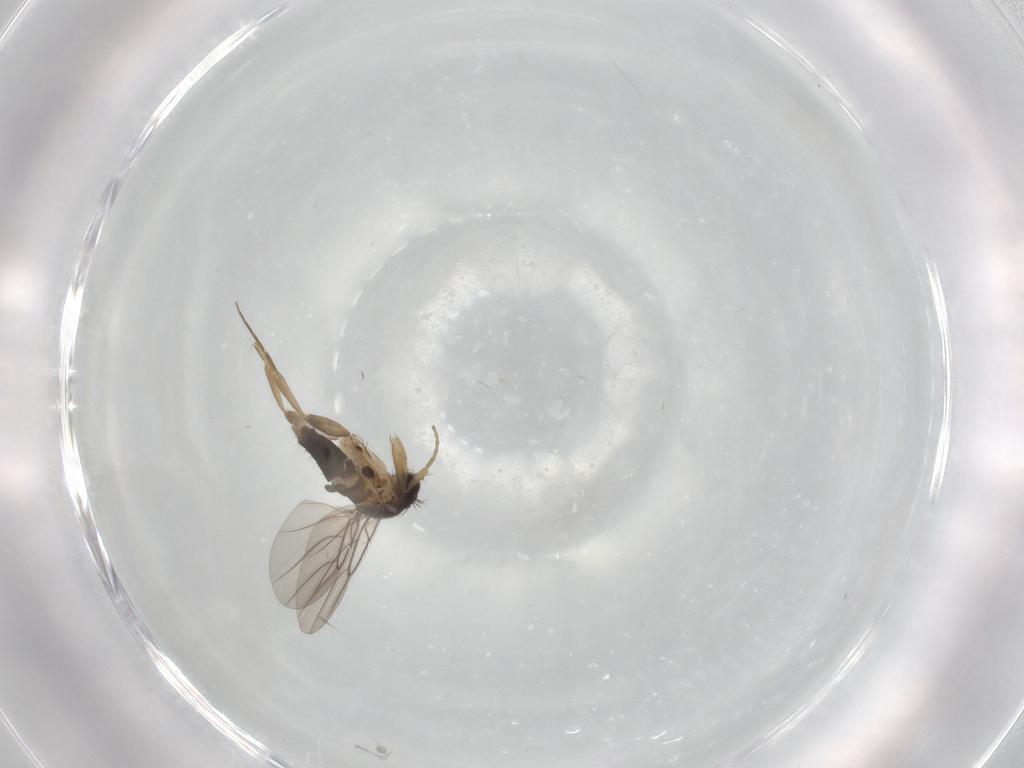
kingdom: Animalia
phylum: Arthropoda
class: Insecta
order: Diptera
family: Phoridae
